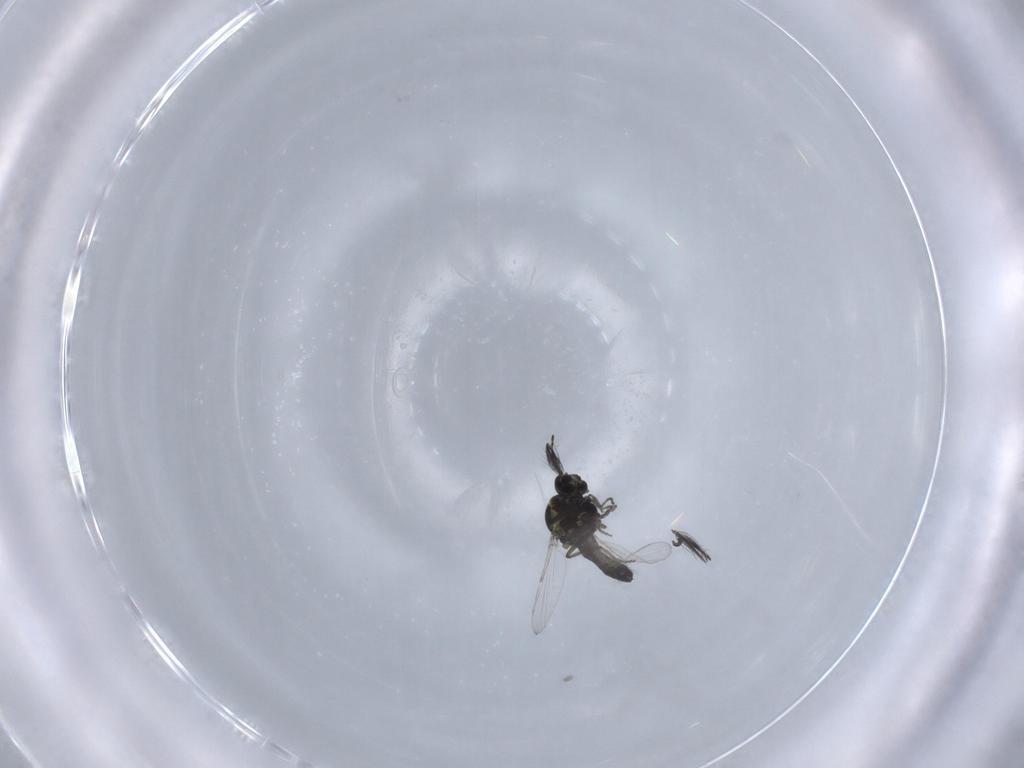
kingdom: Animalia
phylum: Arthropoda
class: Insecta
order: Diptera
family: Ceratopogonidae
